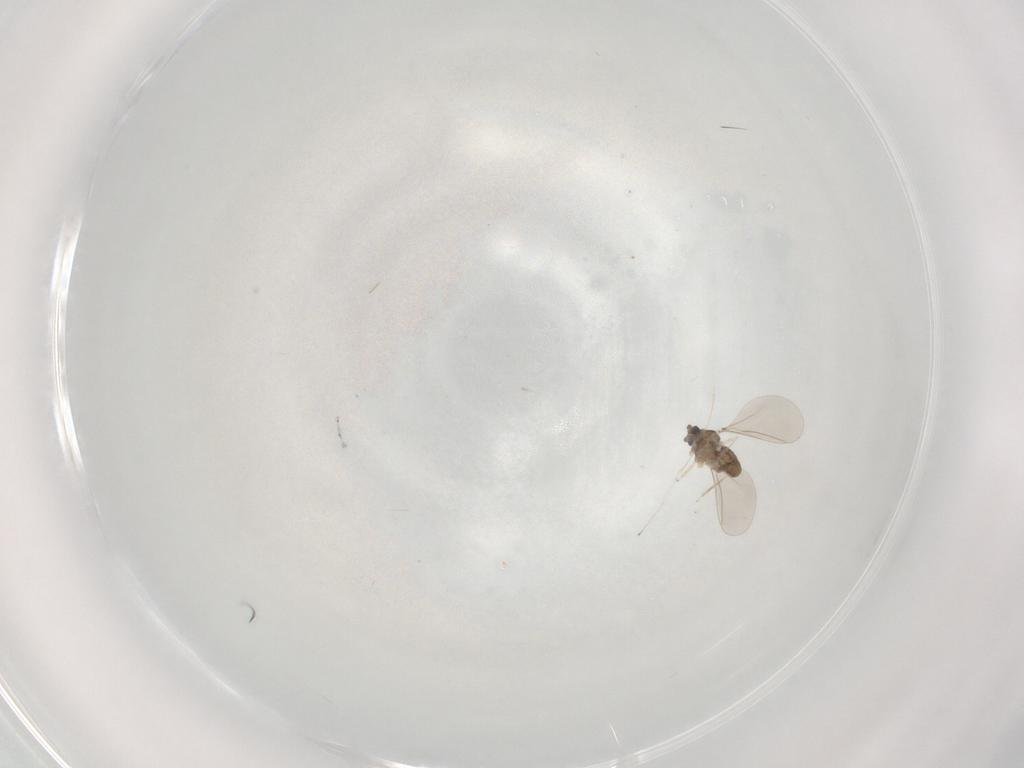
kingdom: Animalia
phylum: Arthropoda
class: Insecta
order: Diptera
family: Cecidomyiidae
